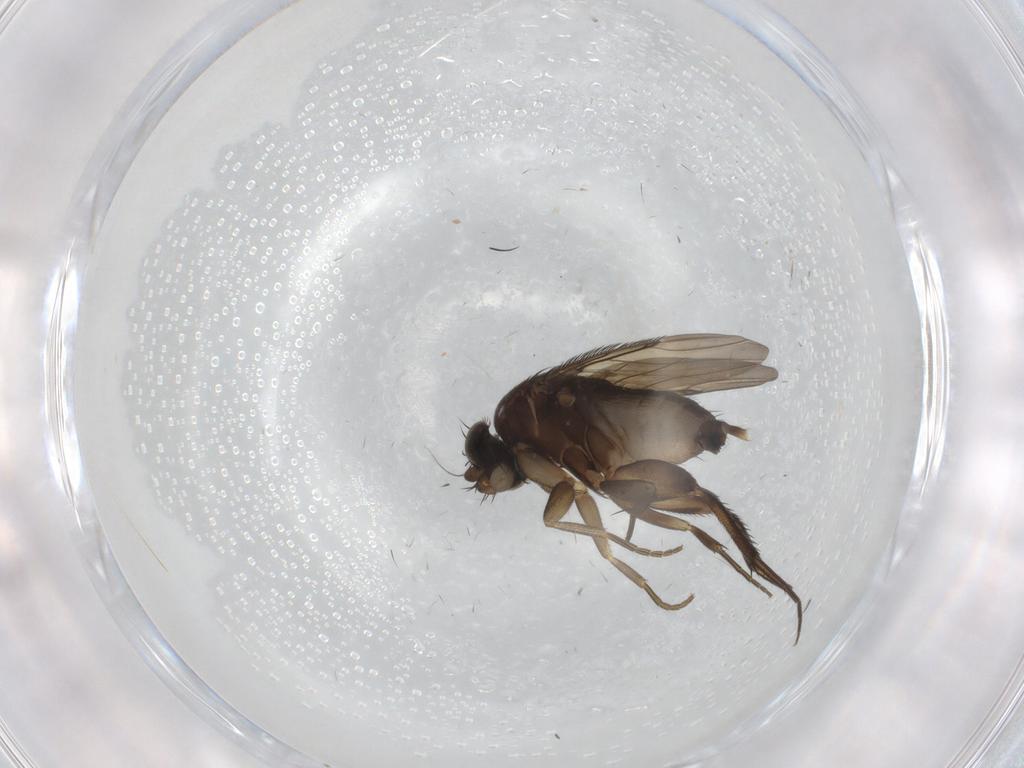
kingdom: Animalia
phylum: Arthropoda
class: Insecta
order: Diptera
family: Phoridae
